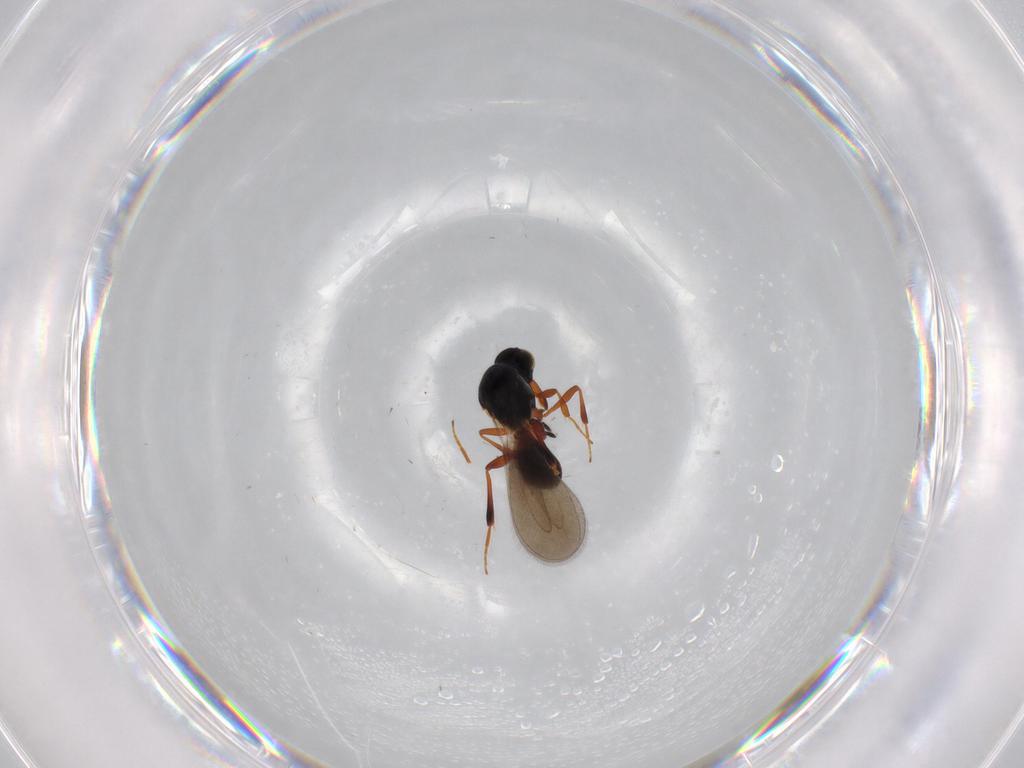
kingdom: Animalia
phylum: Arthropoda
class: Insecta
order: Hymenoptera
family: Platygastridae
